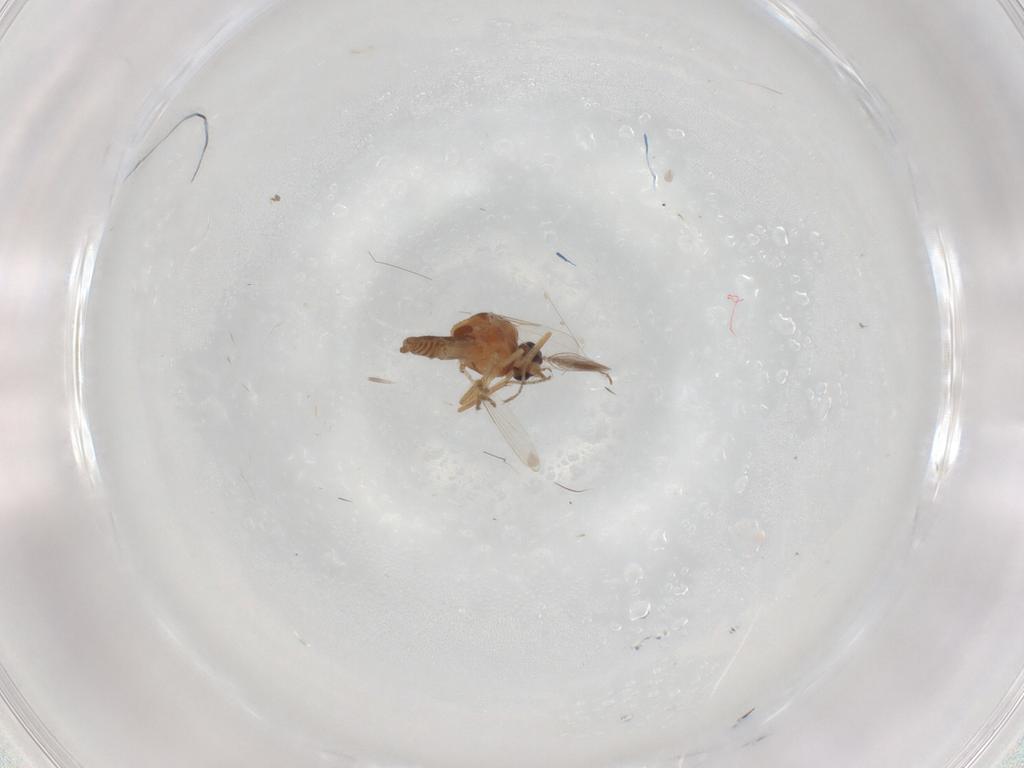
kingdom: Animalia
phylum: Arthropoda
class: Insecta
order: Diptera
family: Ceratopogonidae
